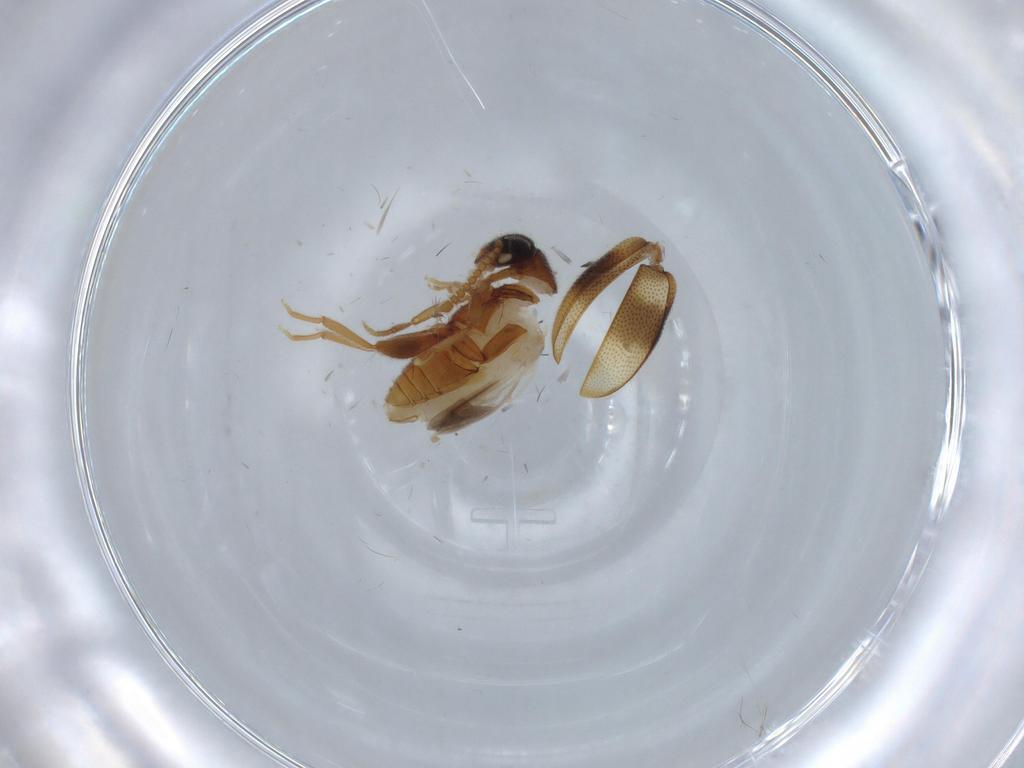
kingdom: Animalia
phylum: Arthropoda
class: Insecta
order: Coleoptera
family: Aderidae
